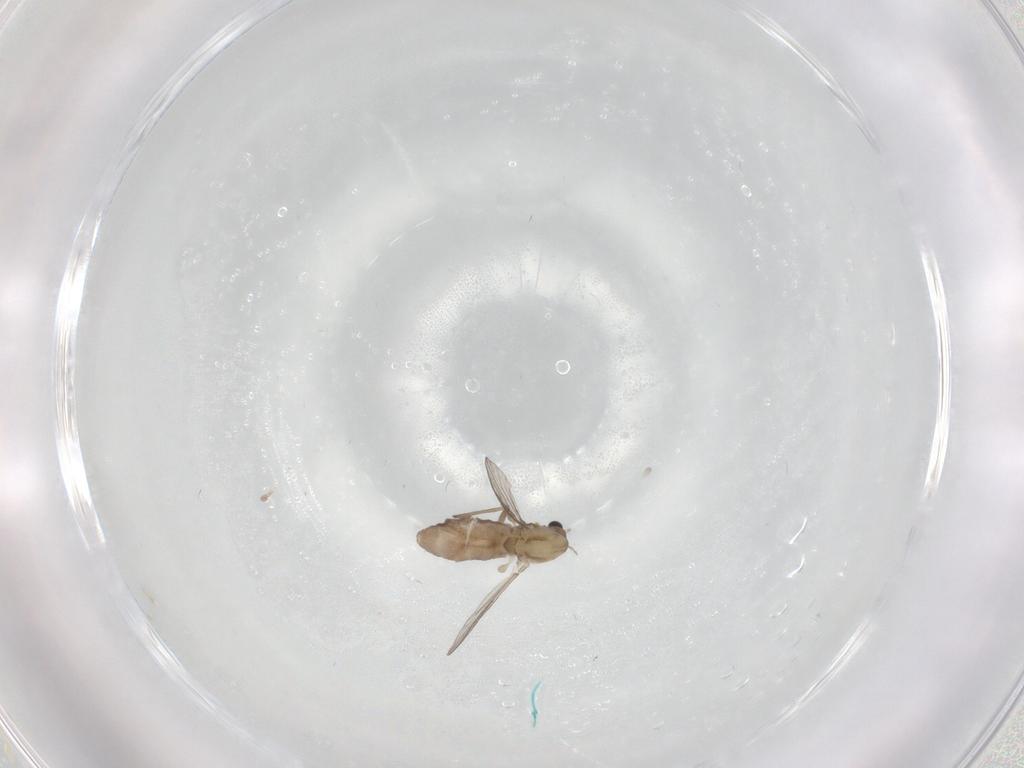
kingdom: Animalia
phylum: Arthropoda
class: Insecta
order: Diptera
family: Chironomidae
